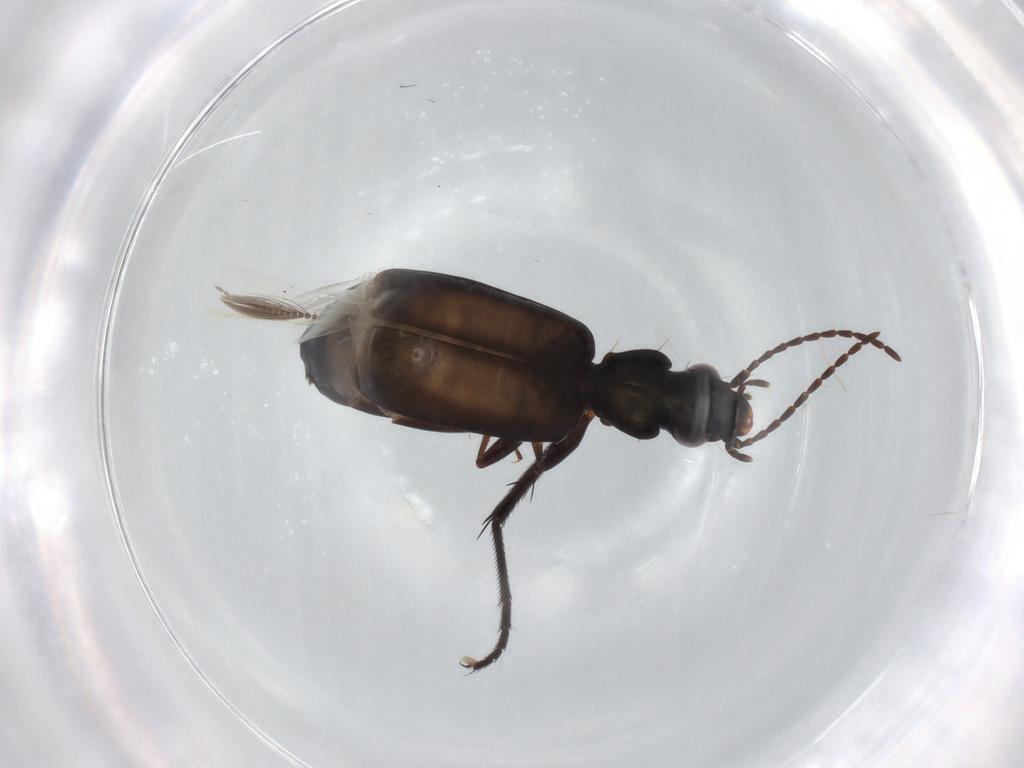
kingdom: Animalia
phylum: Arthropoda
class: Insecta
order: Coleoptera
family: Carabidae
